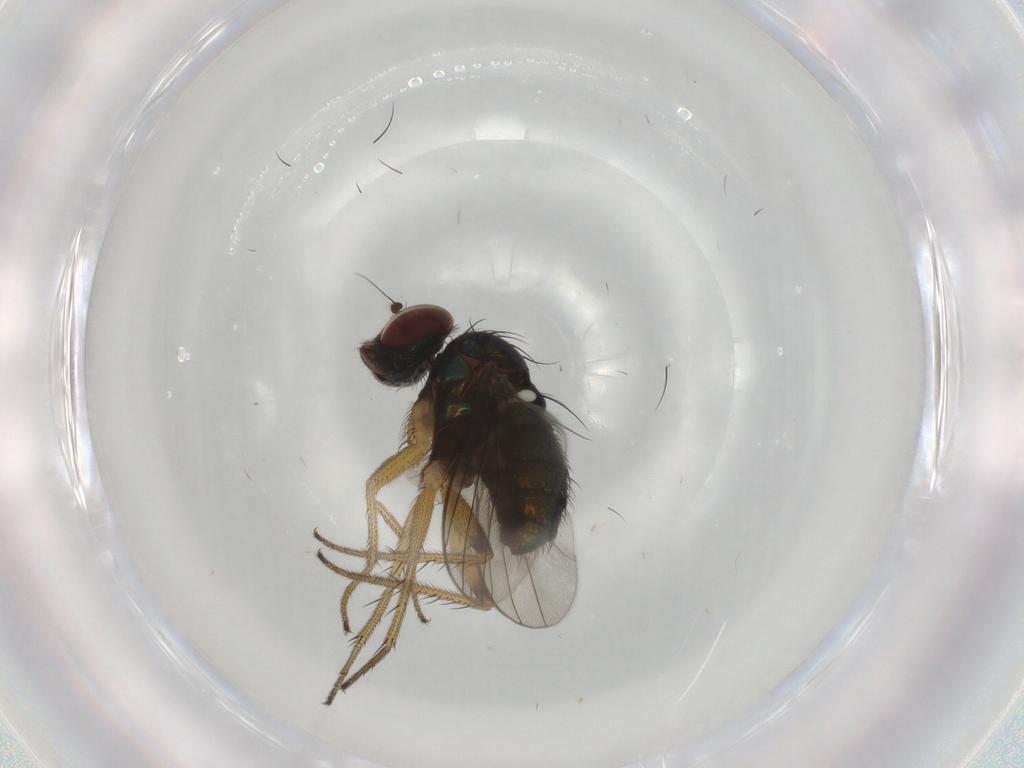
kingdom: Animalia
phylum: Arthropoda
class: Insecta
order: Diptera
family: Dolichopodidae
